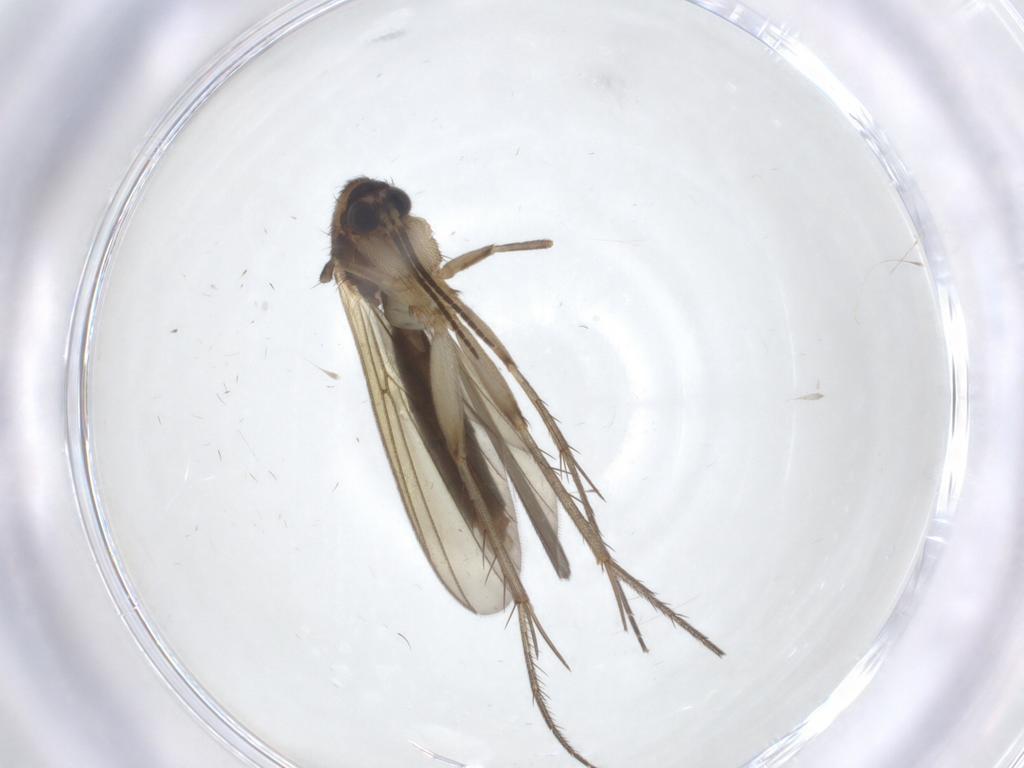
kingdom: Animalia
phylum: Arthropoda
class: Insecta
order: Diptera
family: Mycetophilidae
